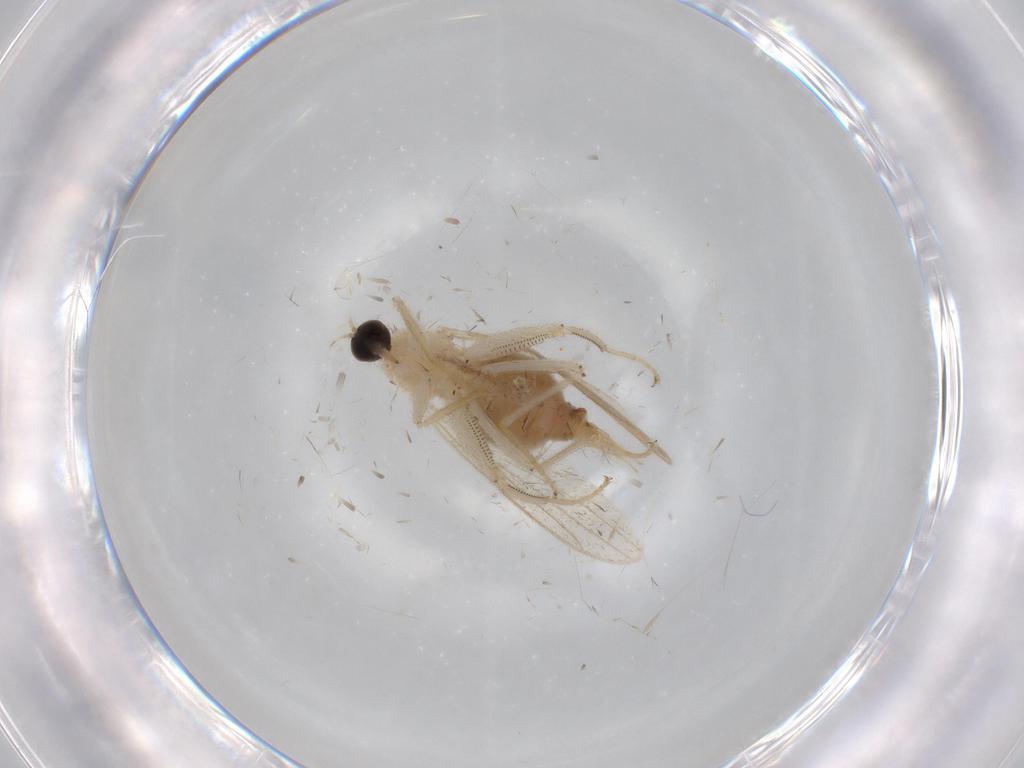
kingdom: Animalia
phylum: Arthropoda
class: Insecta
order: Diptera
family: Hybotidae
